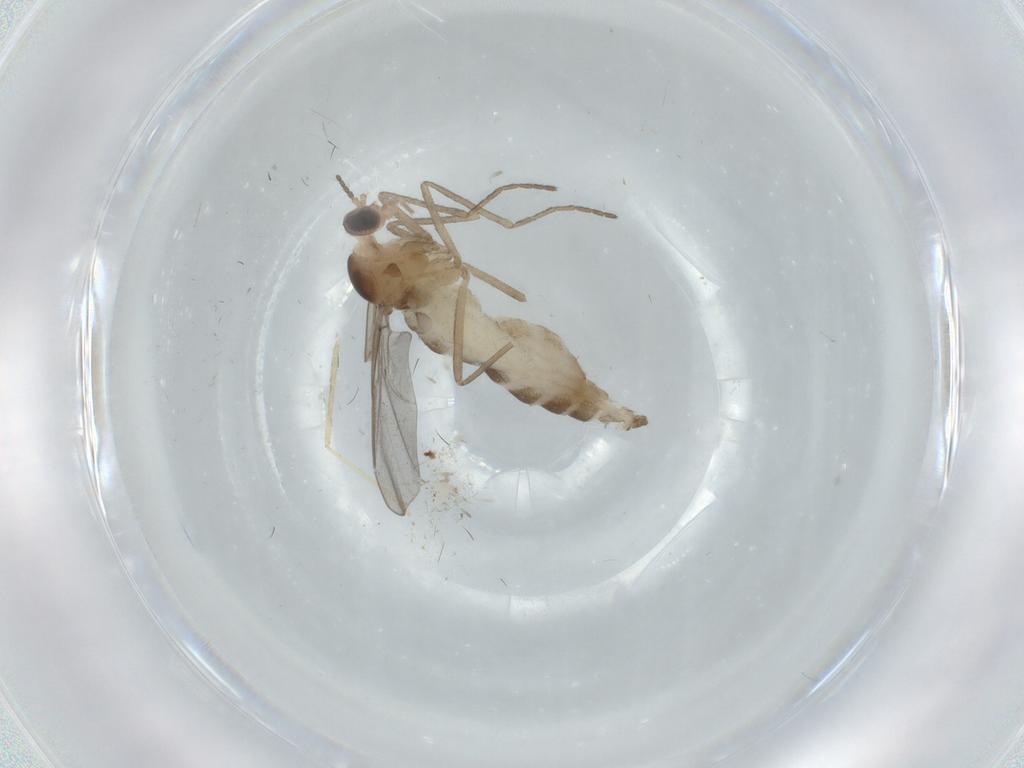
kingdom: Animalia
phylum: Arthropoda
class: Insecta
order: Diptera
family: Cecidomyiidae
